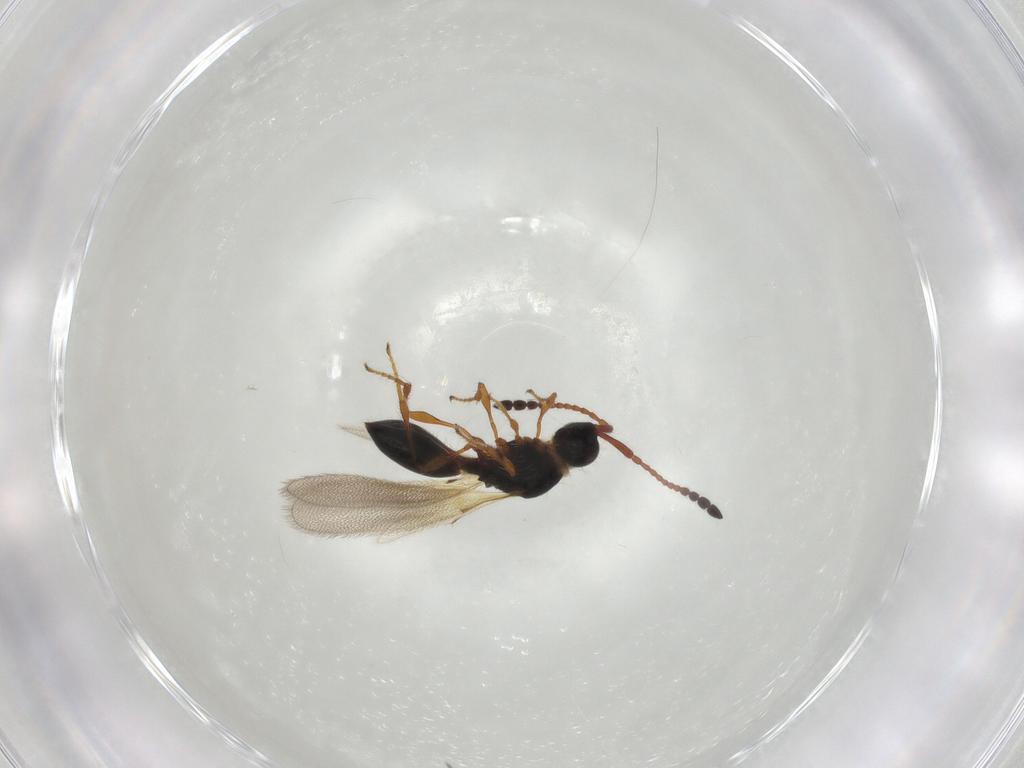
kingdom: Animalia
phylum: Arthropoda
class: Insecta
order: Hymenoptera
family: Diapriidae
